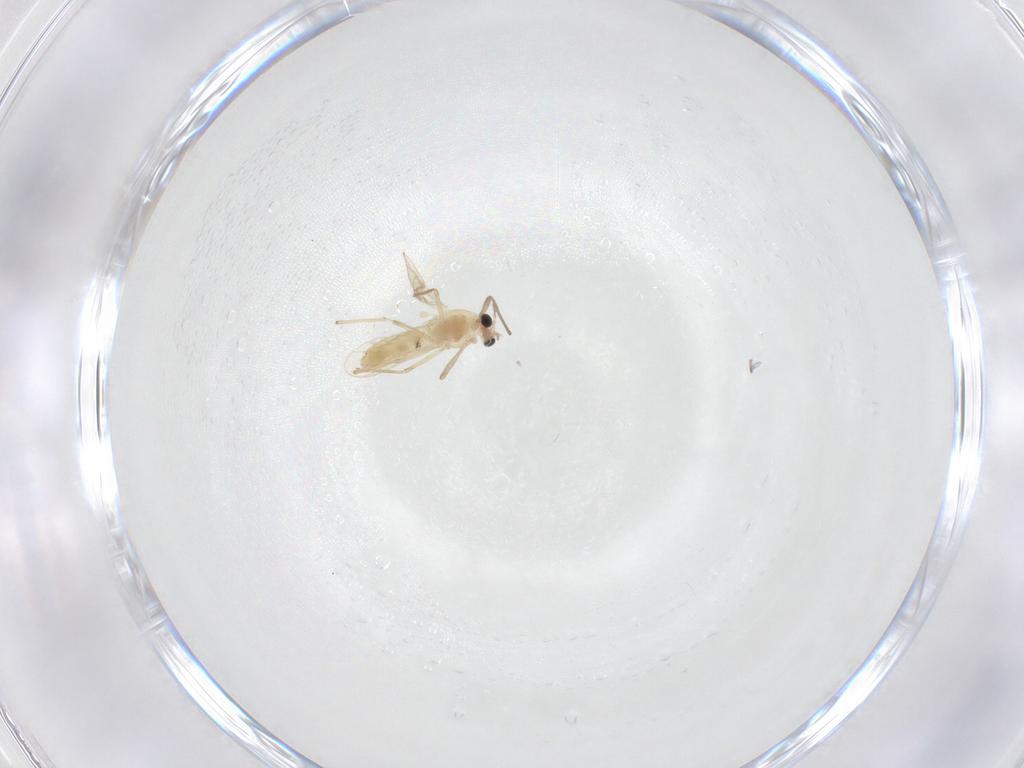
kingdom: Animalia
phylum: Arthropoda
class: Insecta
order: Diptera
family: Chironomidae
